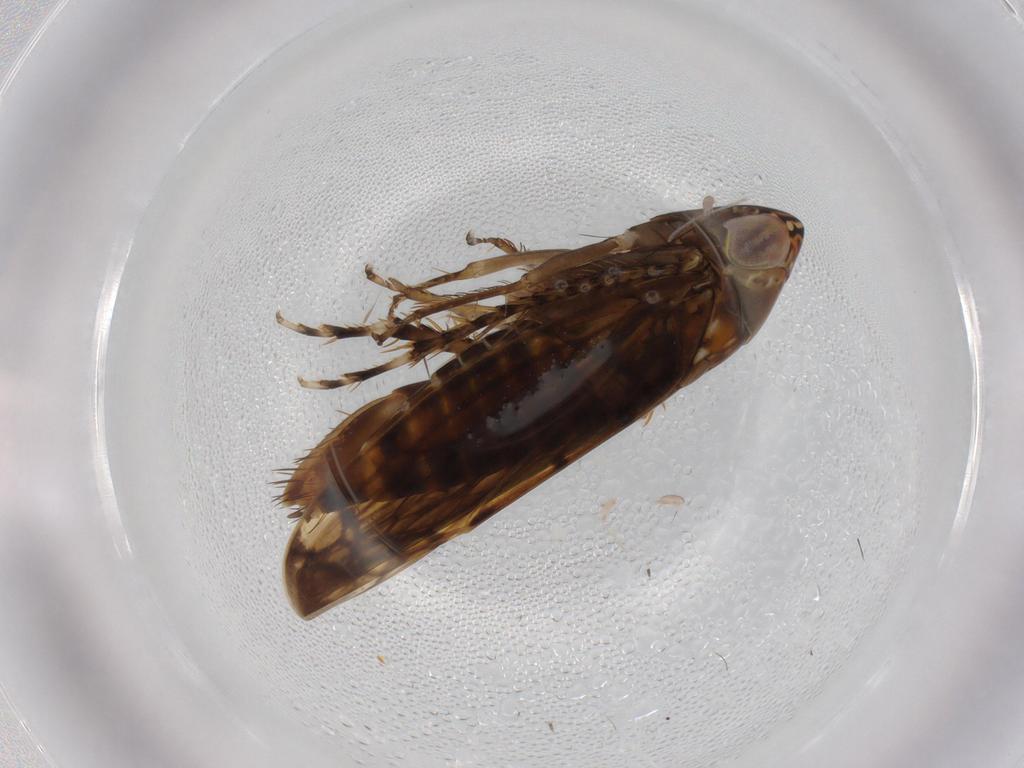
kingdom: Animalia
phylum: Arthropoda
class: Insecta
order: Hemiptera
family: Cicadellidae
